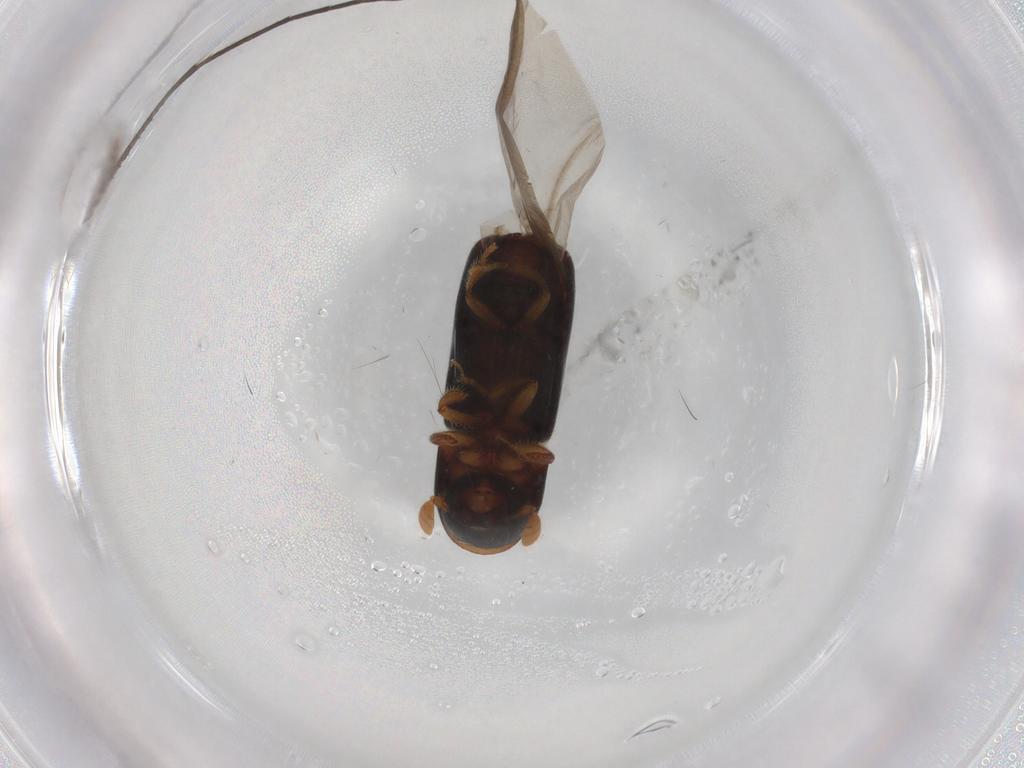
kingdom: Animalia
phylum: Arthropoda
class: Insecta
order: Coleoptera
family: Curculionidae
